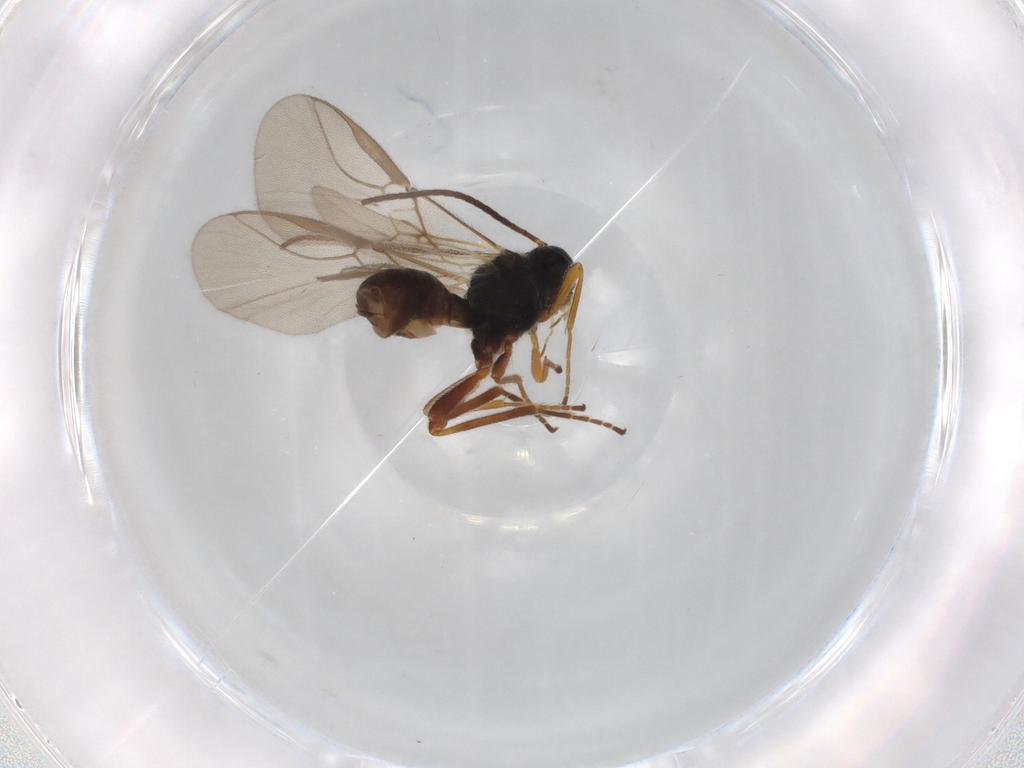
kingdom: Animalia
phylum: Arthropoda
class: Insecta
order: Hymenoptera
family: Braconidae
